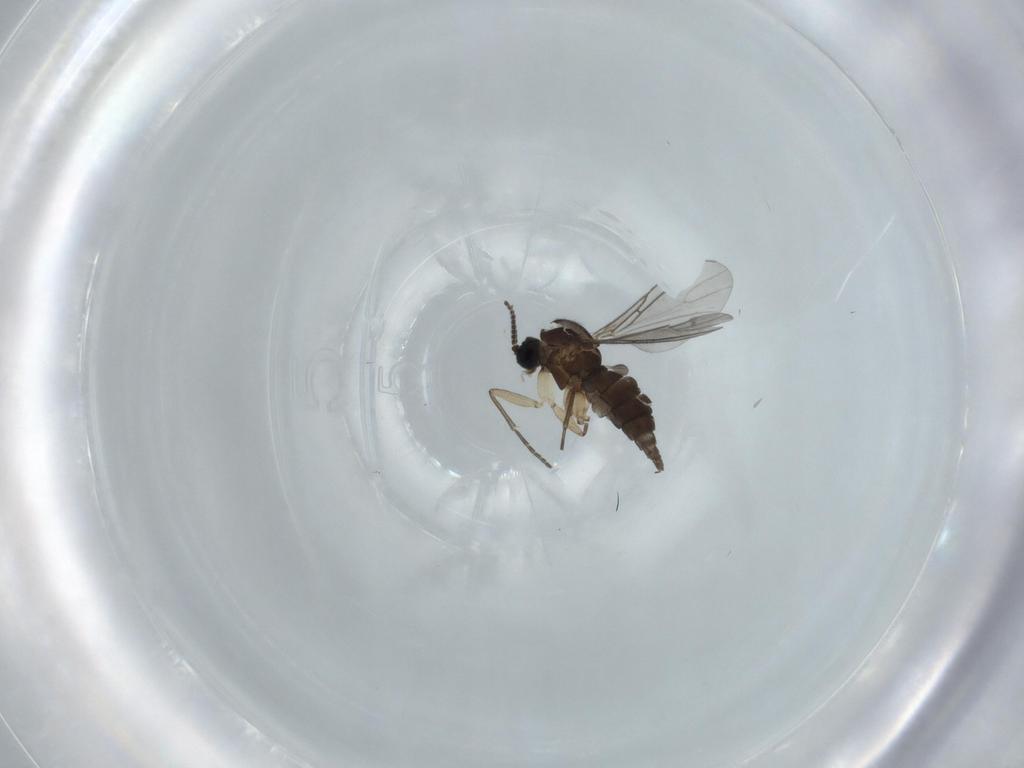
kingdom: Animalia
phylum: Arthropoda
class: Insecta
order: Diptera
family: Sciaridae
